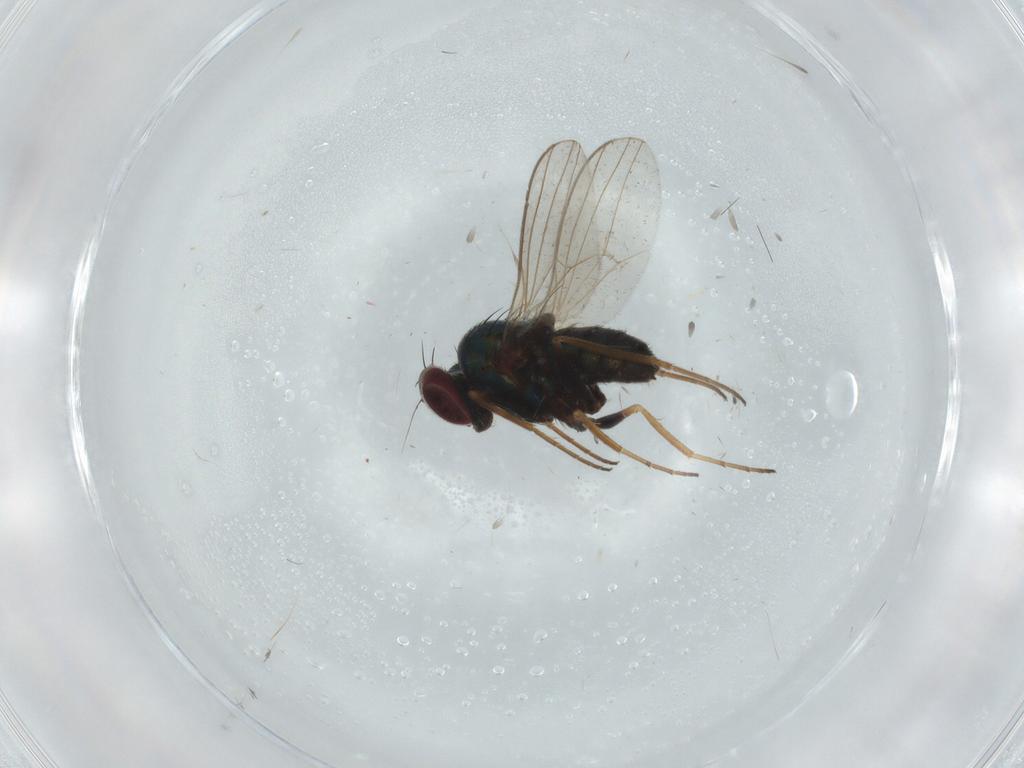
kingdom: Animalia
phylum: Arthropoda
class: Insecta
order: Diptera
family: Dolichopodidae
